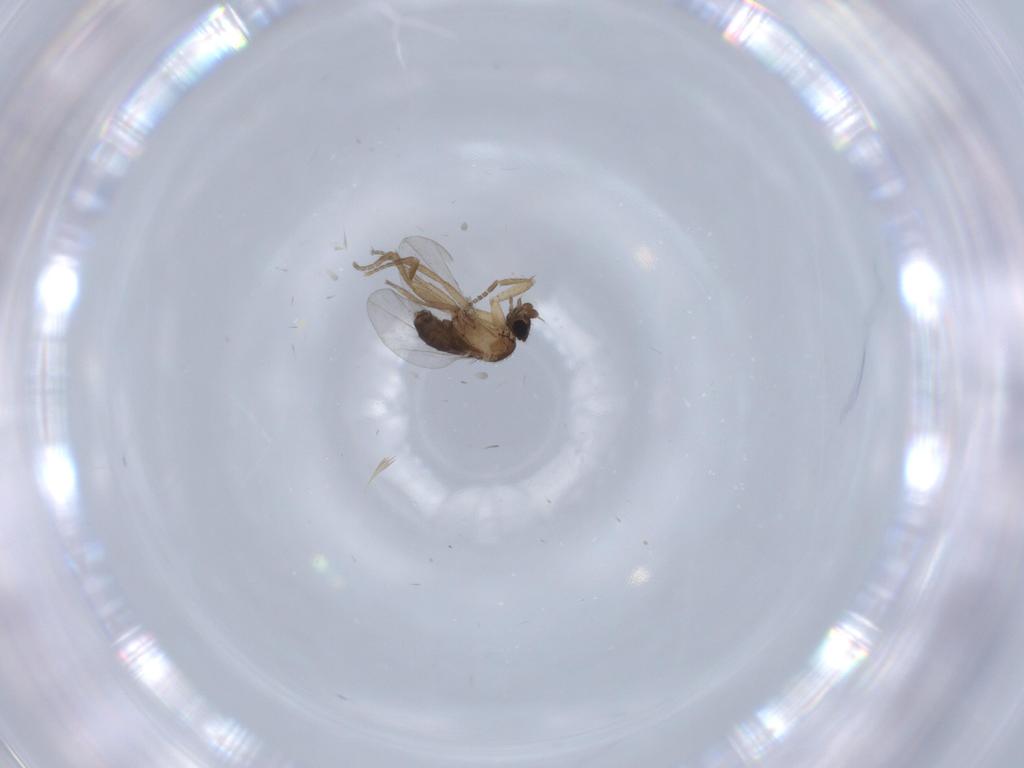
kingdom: Animalia
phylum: Arthropoda
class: Insecta
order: Diptera
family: Phoridae
